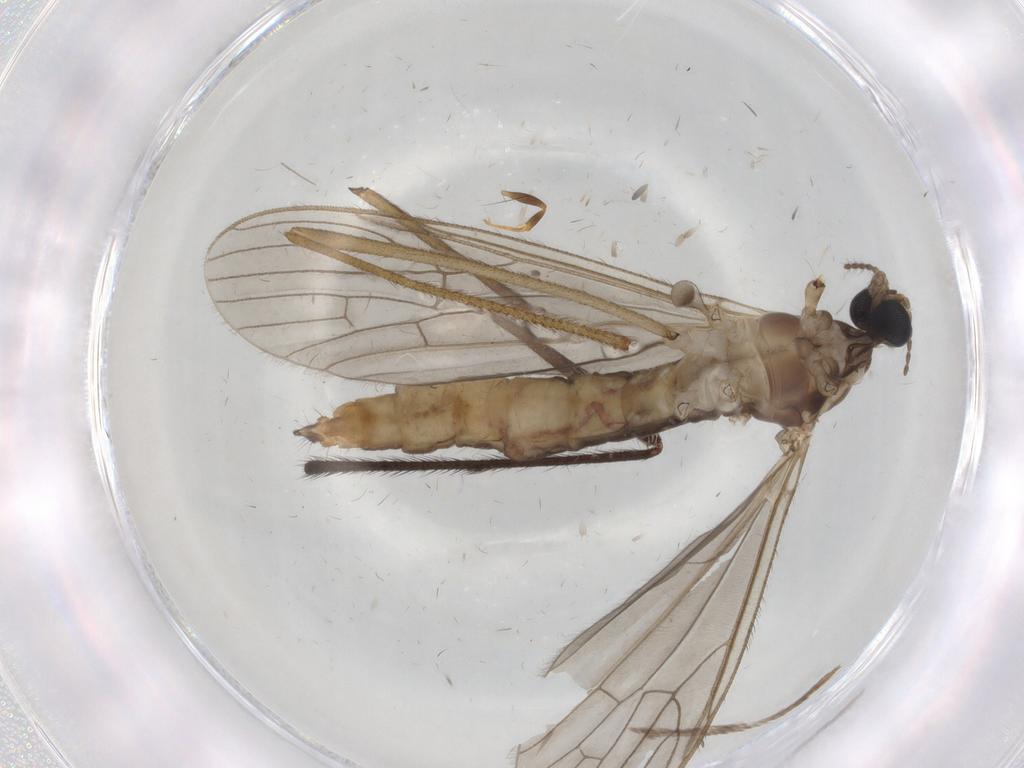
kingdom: Animalia
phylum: Arthropoda
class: Insecta
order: Diptera
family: Cecidomyiidae
